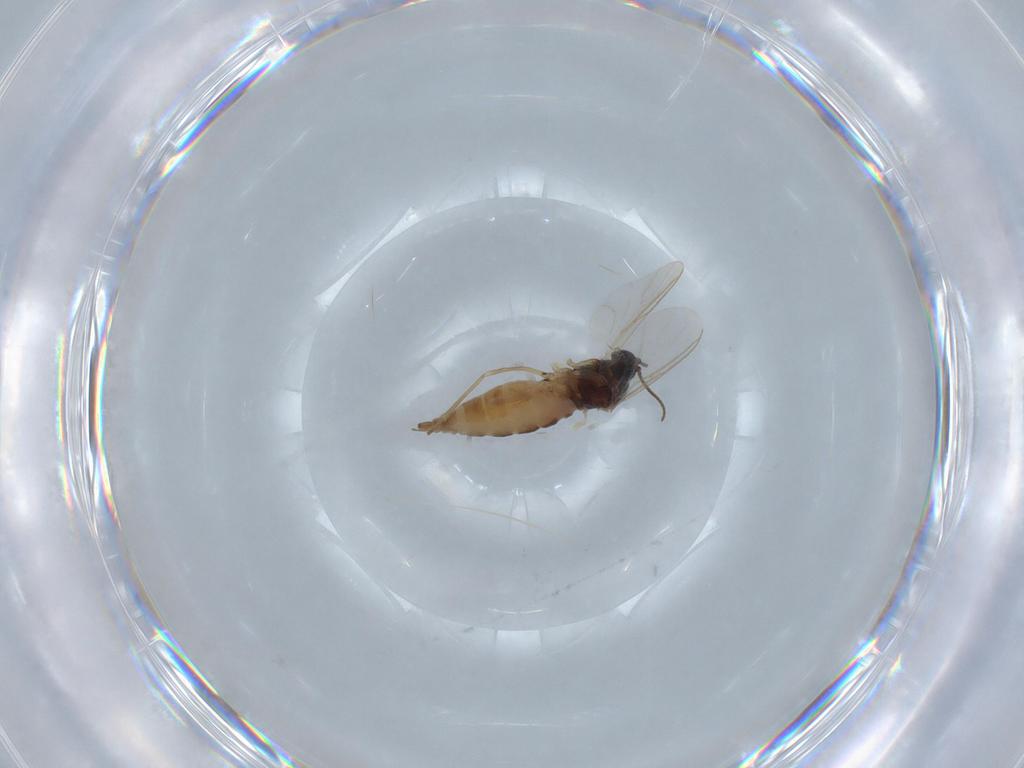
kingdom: Animalia
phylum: Arthropoda
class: Insecta
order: Diptera
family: Sciaridae
